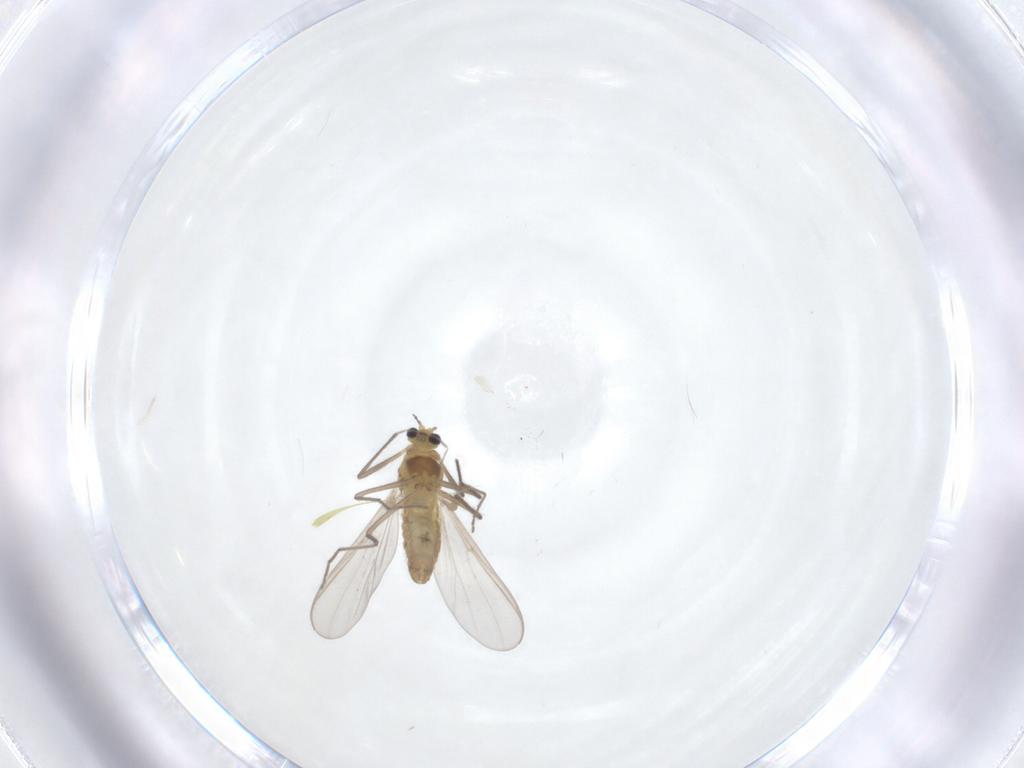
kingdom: Animalia
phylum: Arthropoda
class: Insecta
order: Diptera
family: Chironomidae
